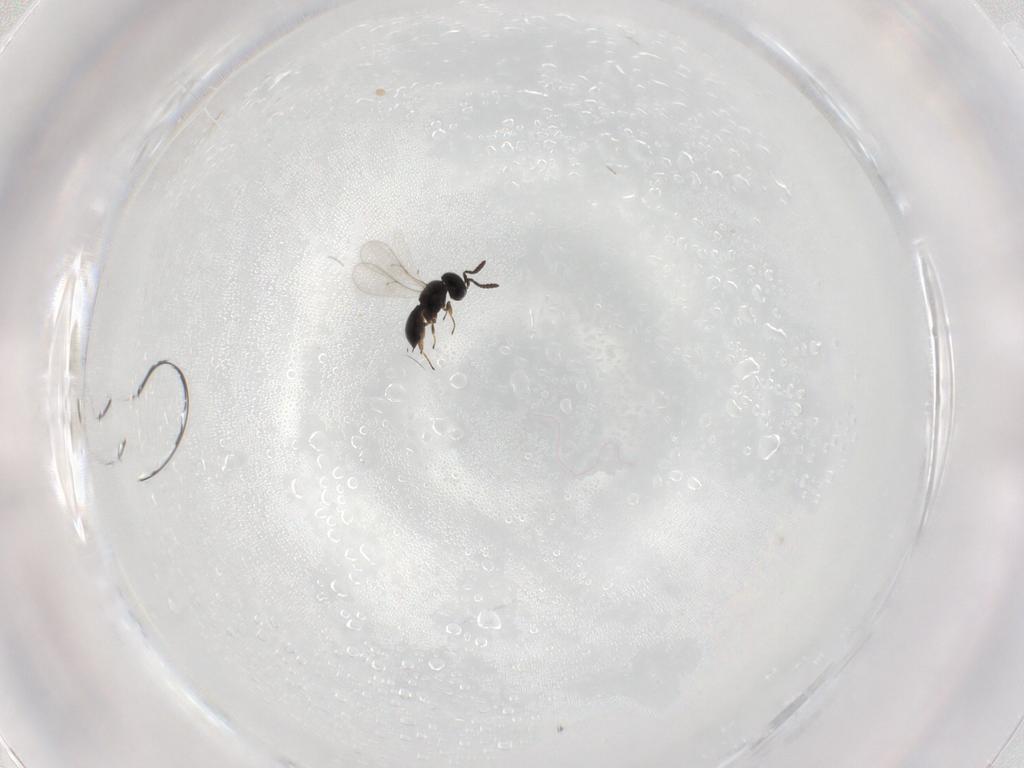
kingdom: Animalia
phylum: Arthropoda
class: Insecta
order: Hymenoptera
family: Scelionidae
